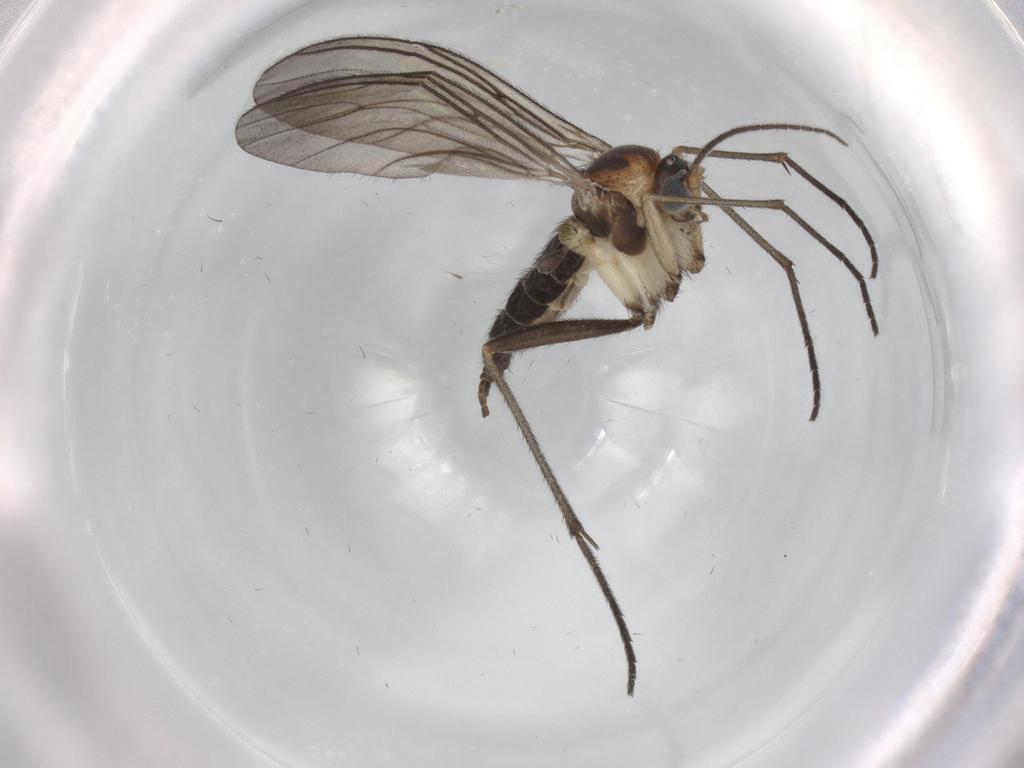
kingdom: Animalia
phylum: Arthropoda
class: Insecta
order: Diptera
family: Sciaridae
